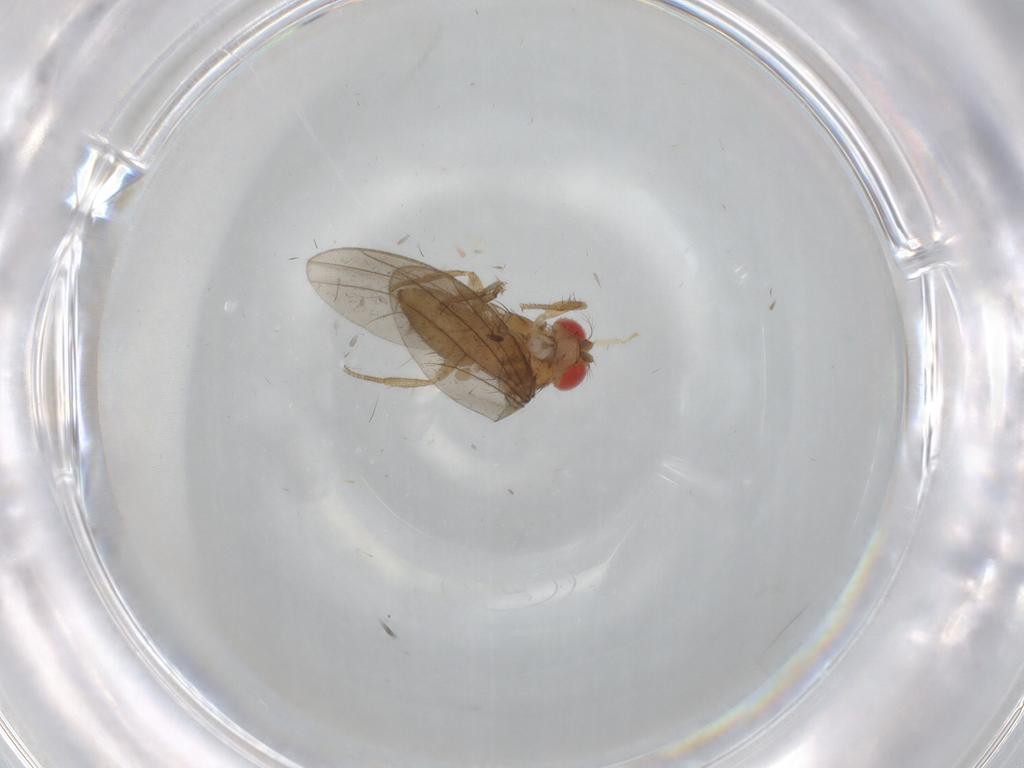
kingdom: Animalia
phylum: Arthropoda
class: Insecta
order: Diptera
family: Drosophilidae
